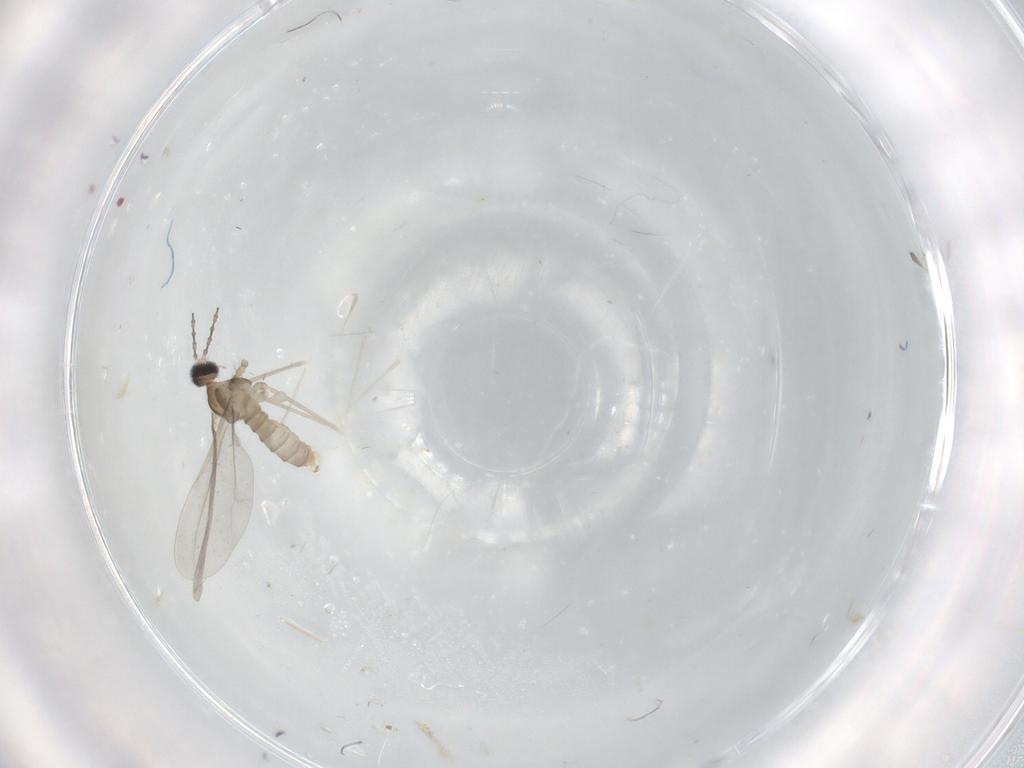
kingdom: Animalia
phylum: Arthropoda
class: Insecta
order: Diptera
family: Cecidomyiidae
